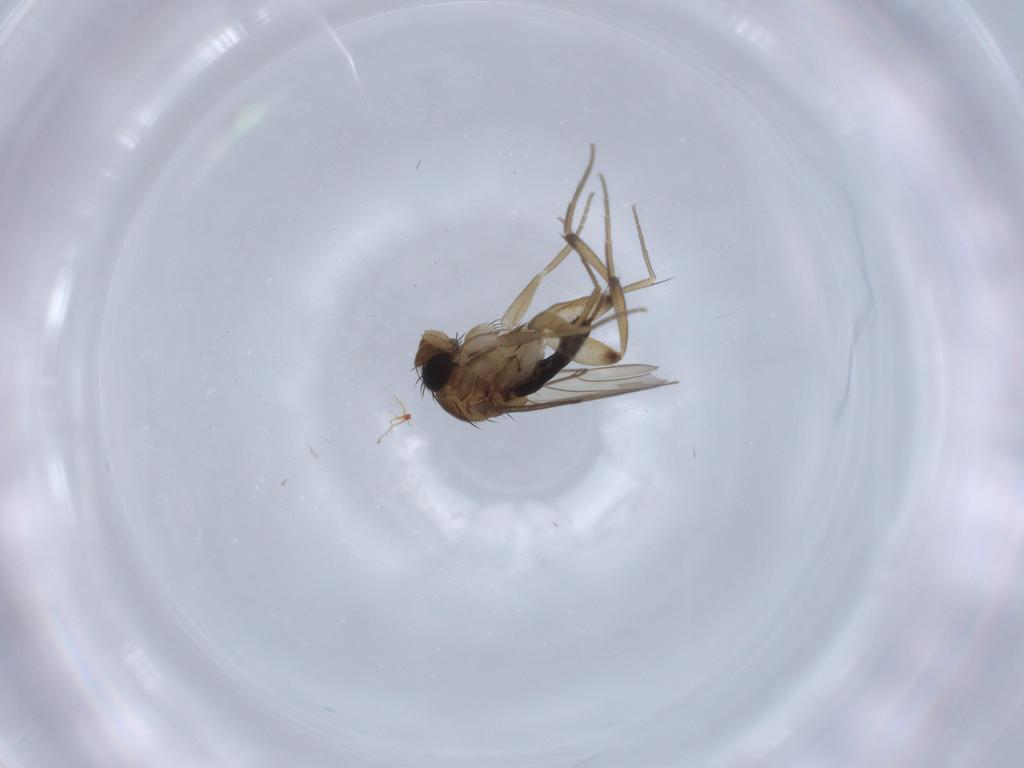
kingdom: Animalia
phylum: Arthropoda
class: Insecta
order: Diptera
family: Phoridae
